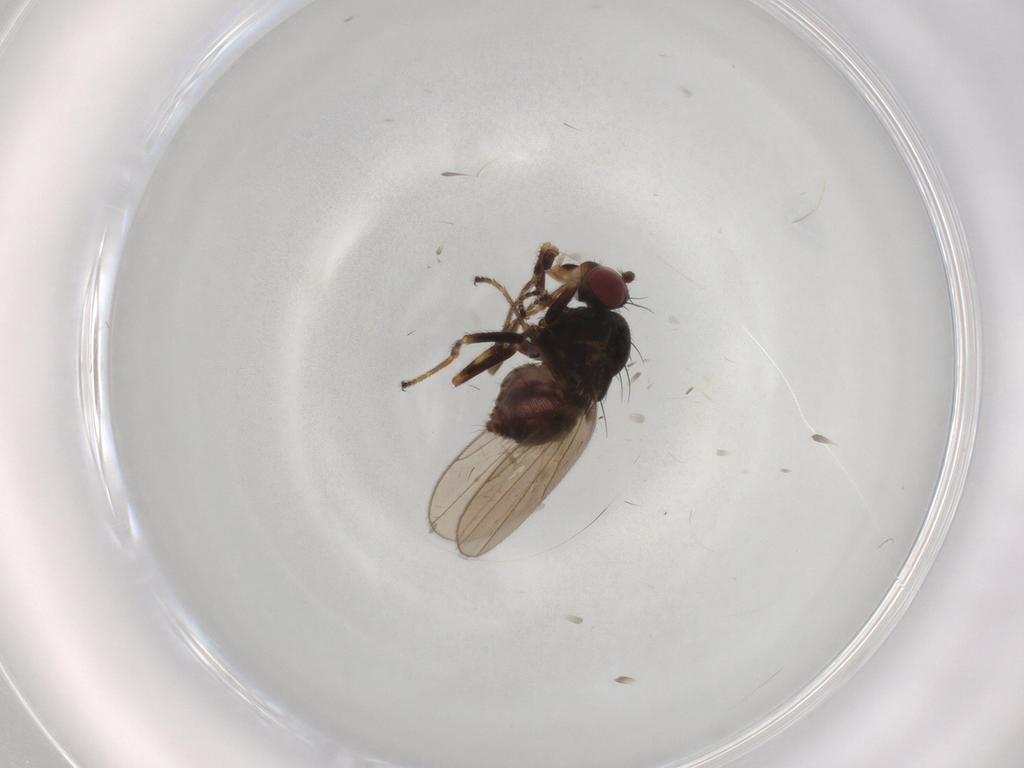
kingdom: Animalia
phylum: Arthropoda
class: Insecta
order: Diptera
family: Ephydridae
